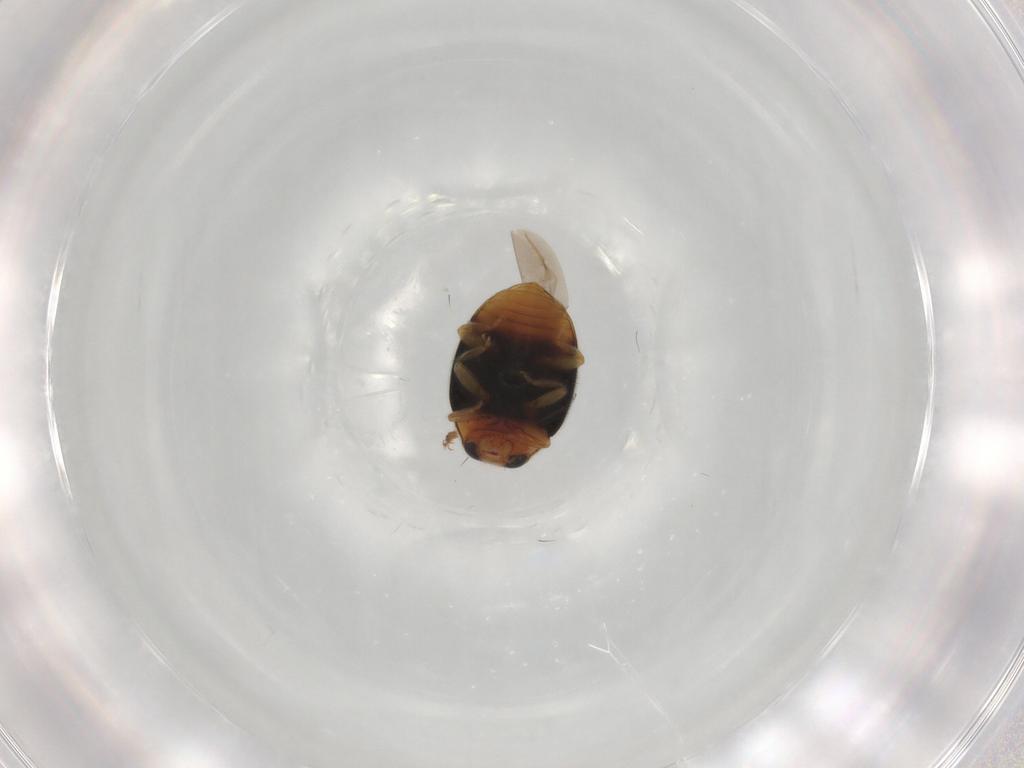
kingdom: Animalia
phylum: Arthropoda
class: Insecta
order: Coleoptera
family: Coccinellidae
